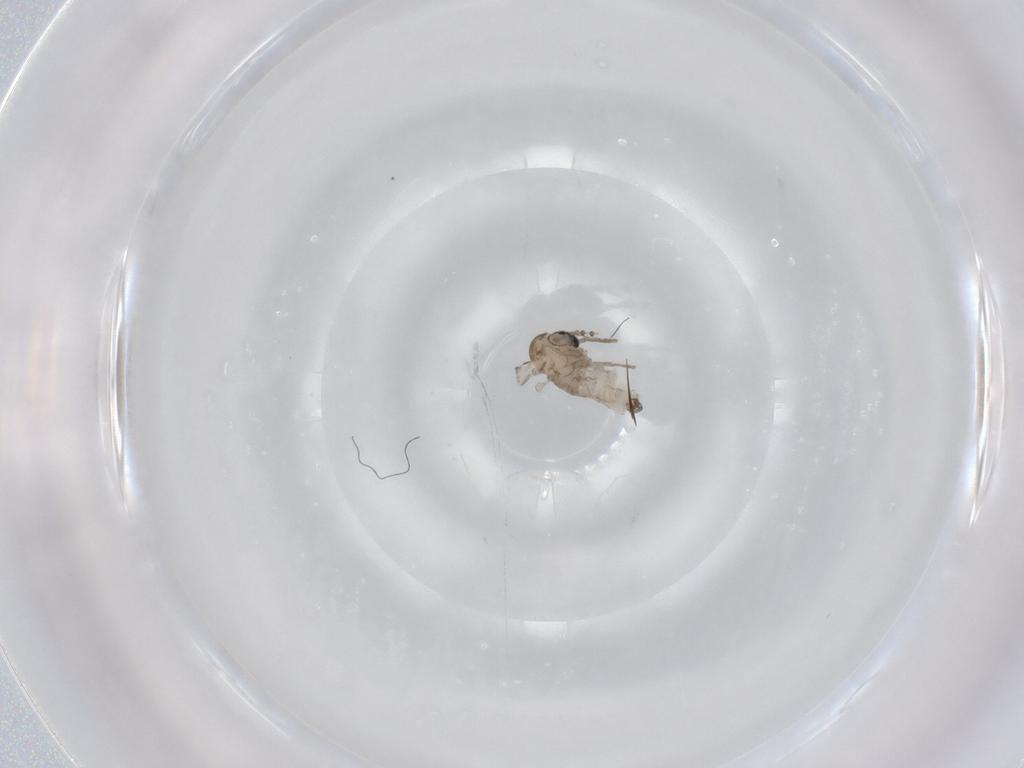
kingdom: Animalia
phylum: Arthropoda
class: Insecta
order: Diptera
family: Psychodidae
